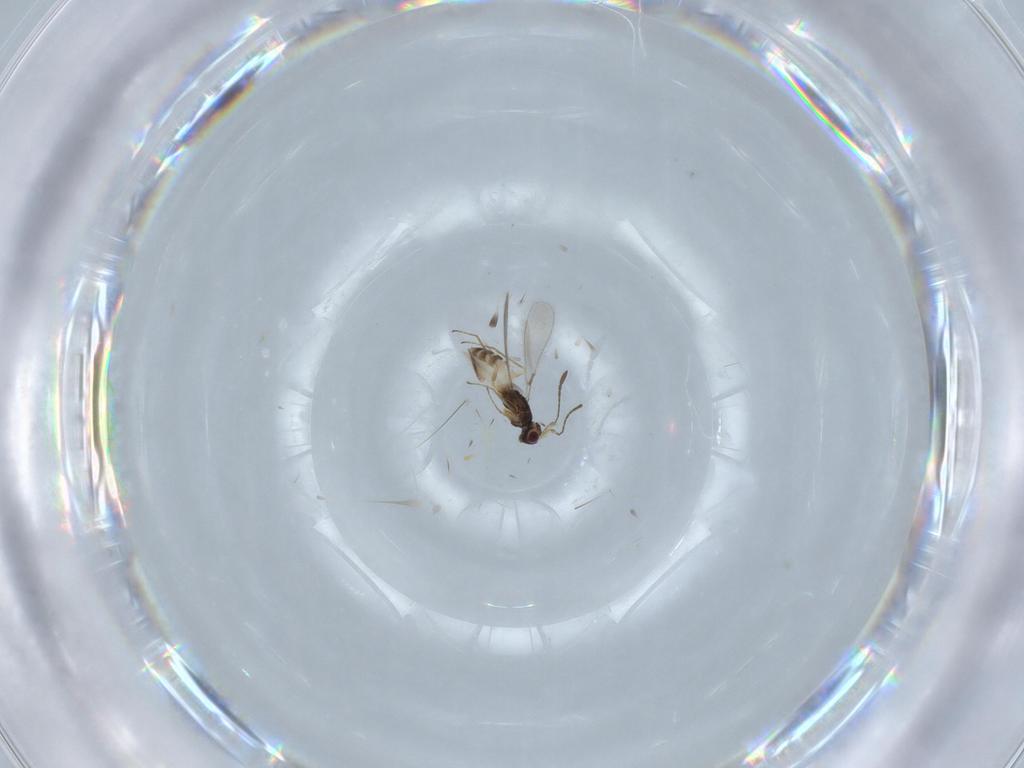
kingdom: Animalia
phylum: Arthropoda
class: Insecta
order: Hymenoptera
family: Mymaridae
